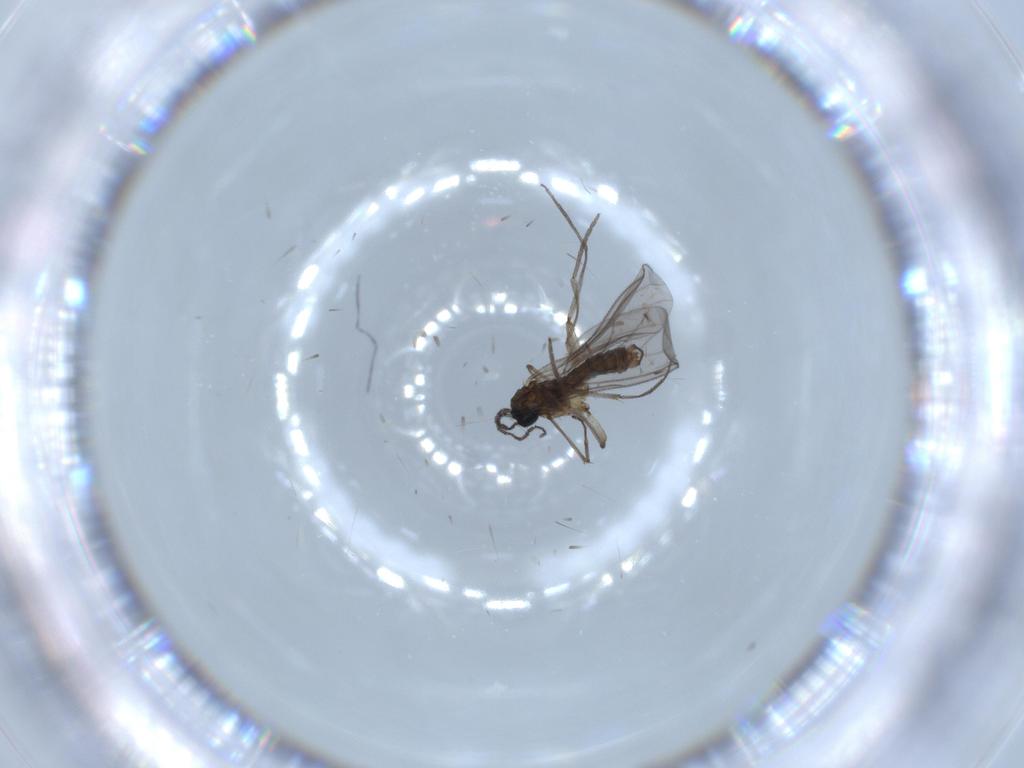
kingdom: Animalia
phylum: Arthropoda
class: Insecta
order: Diptera
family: Sciaridae
